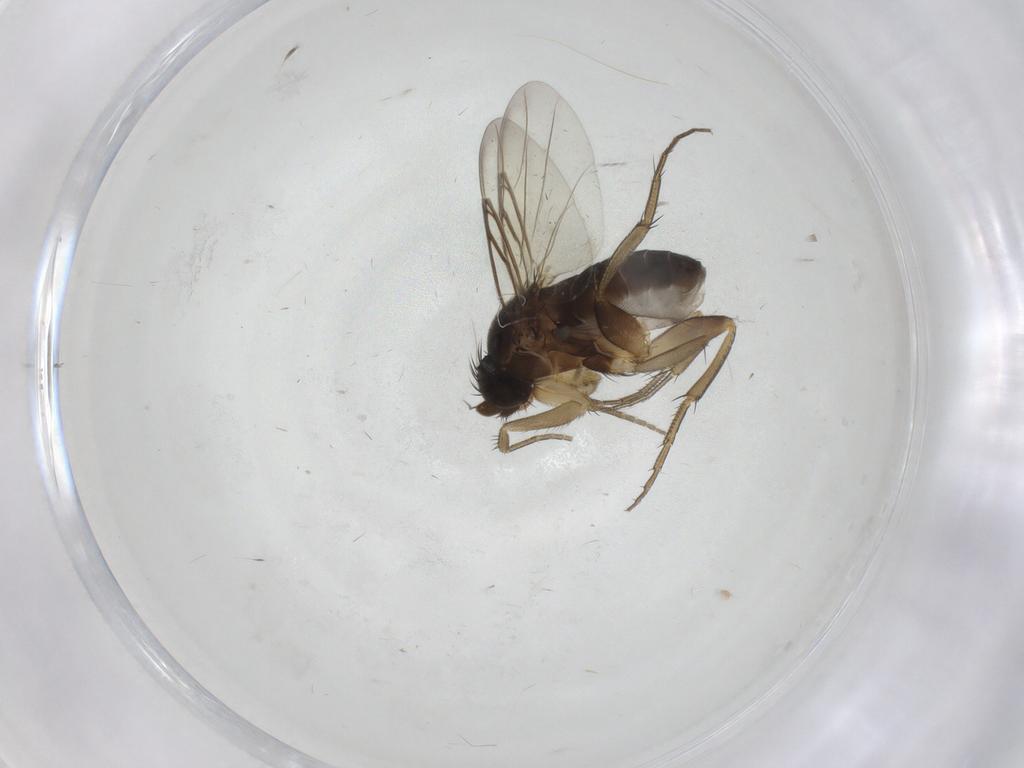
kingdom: Animalia
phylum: Arthropoda
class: Insecta
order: Diptera
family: Phoridae
